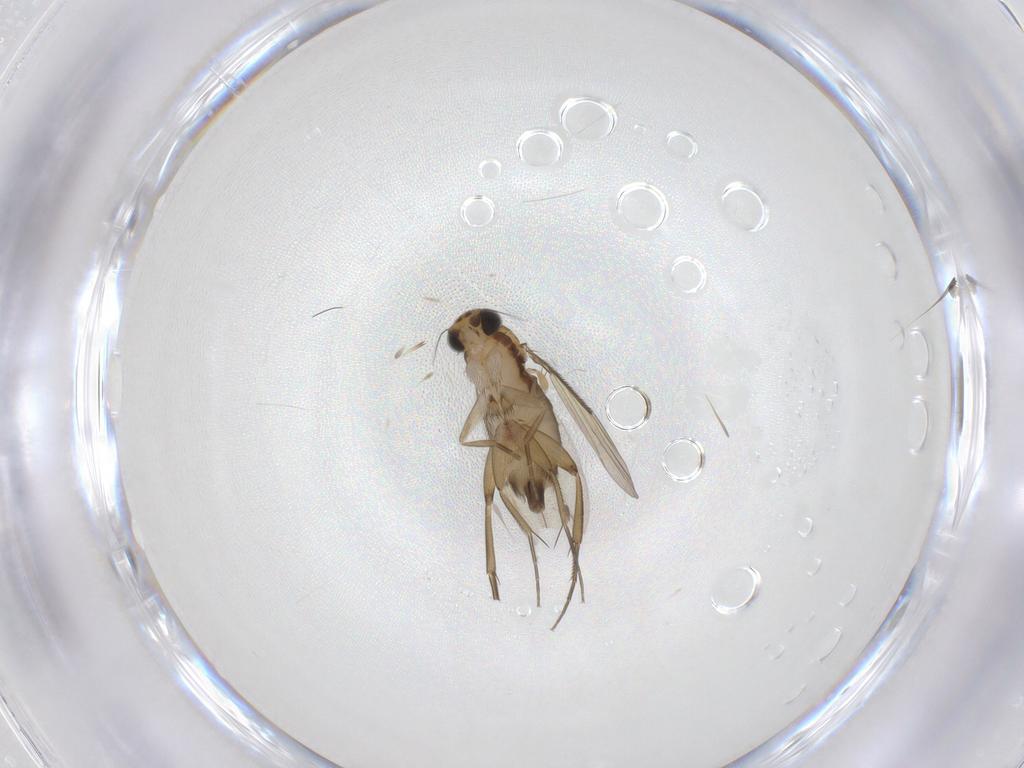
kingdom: Animalia
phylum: Arthropoda
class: Insecta
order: Diptera
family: Phoridae
